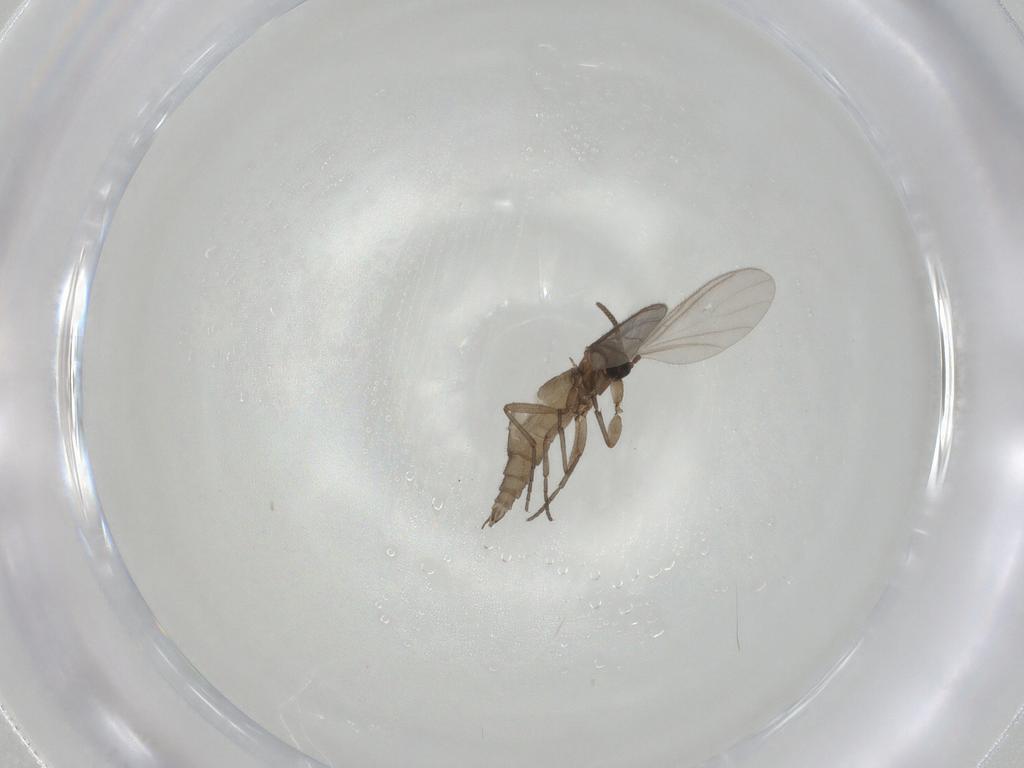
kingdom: Animalia
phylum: Arthropoda
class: Insecta
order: Diptera
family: Sciaridae
